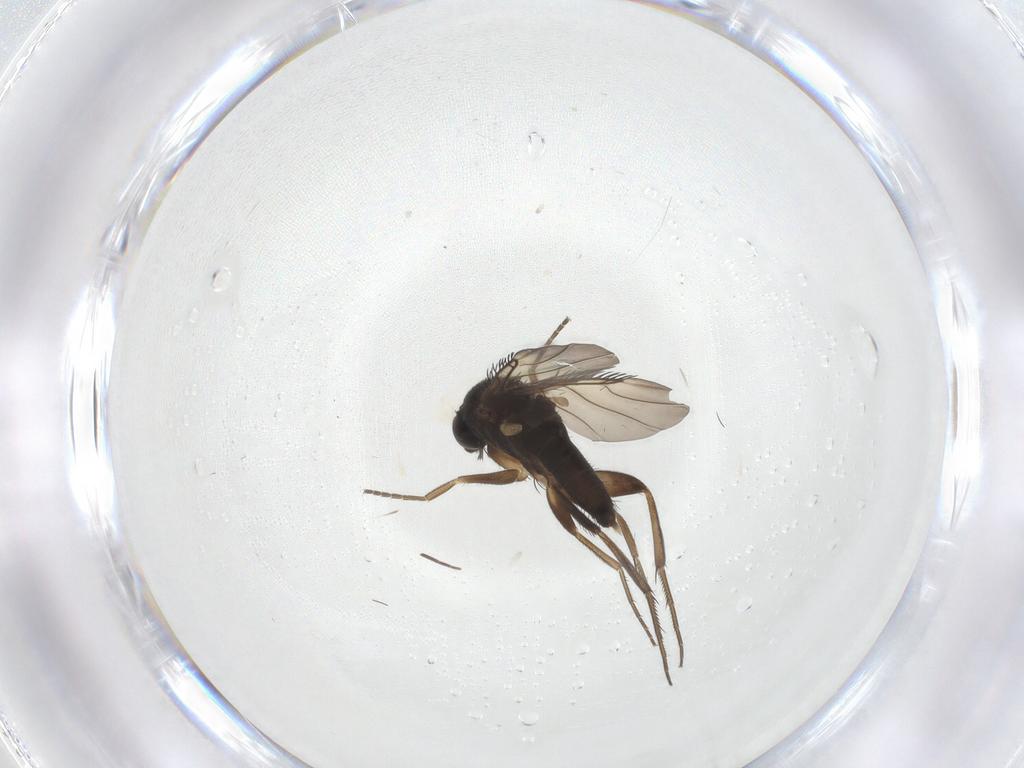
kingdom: Animalia
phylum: Arthropoda
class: Insecta
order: Diptera
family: Phoridae
